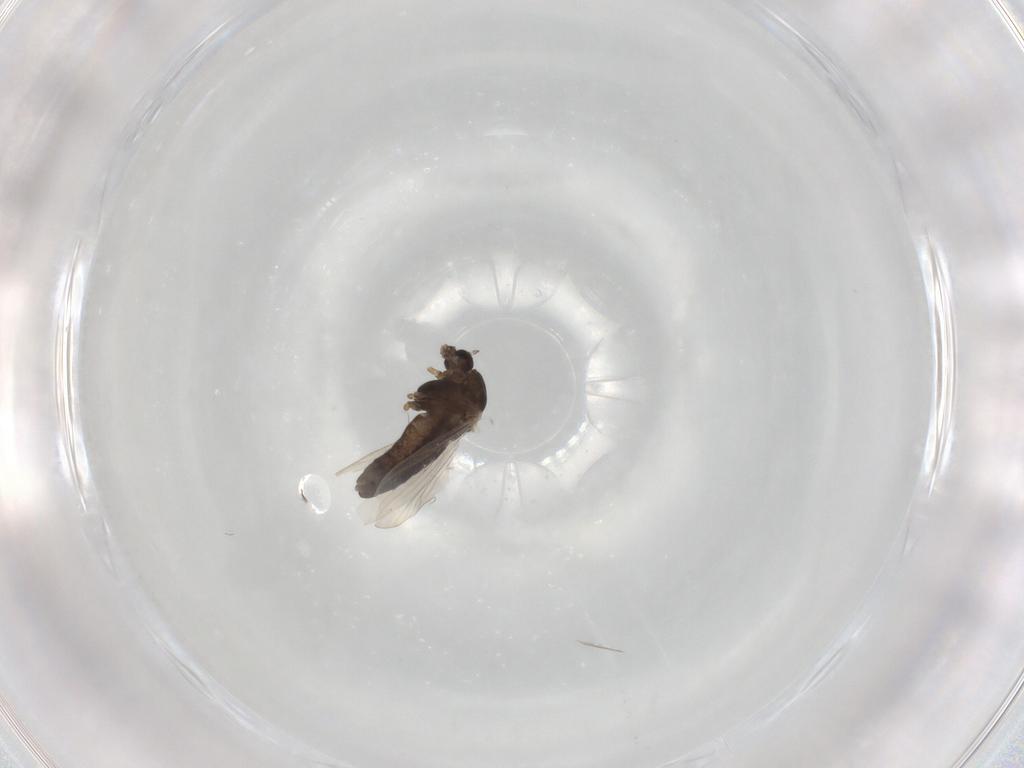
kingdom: Animalia
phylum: Arthropoda
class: Insecta
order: Diptera
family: Chironomidae
